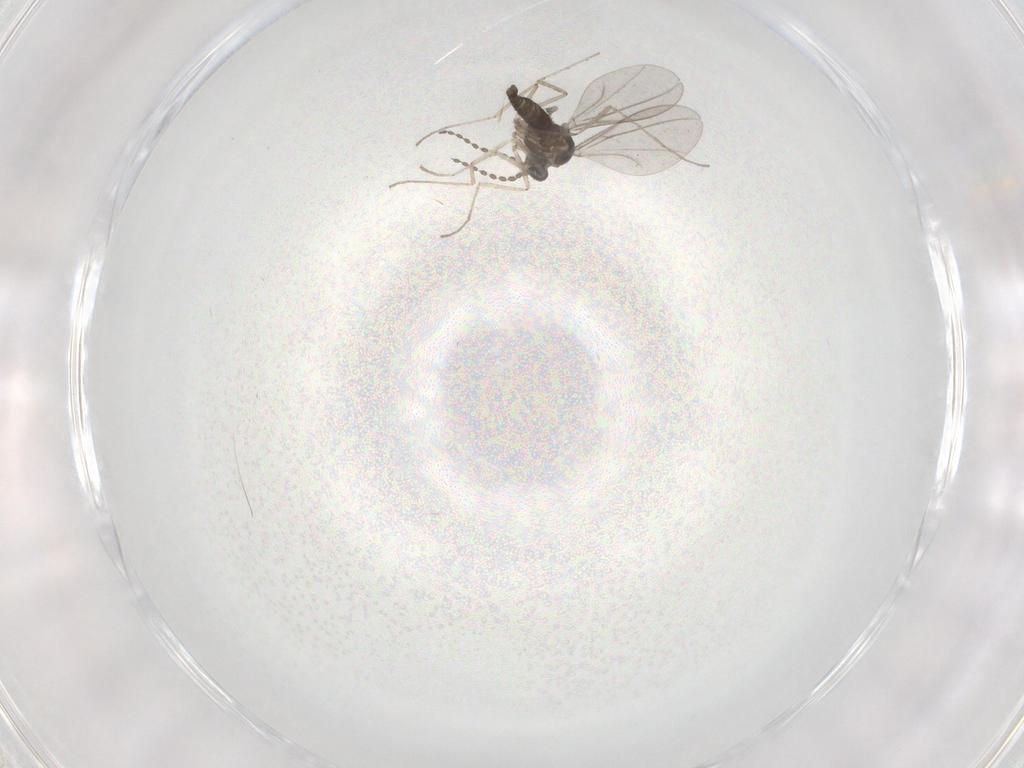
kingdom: Animalia
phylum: Arthropoda
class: Insecta
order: Diptera
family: Cecidomyiidae
